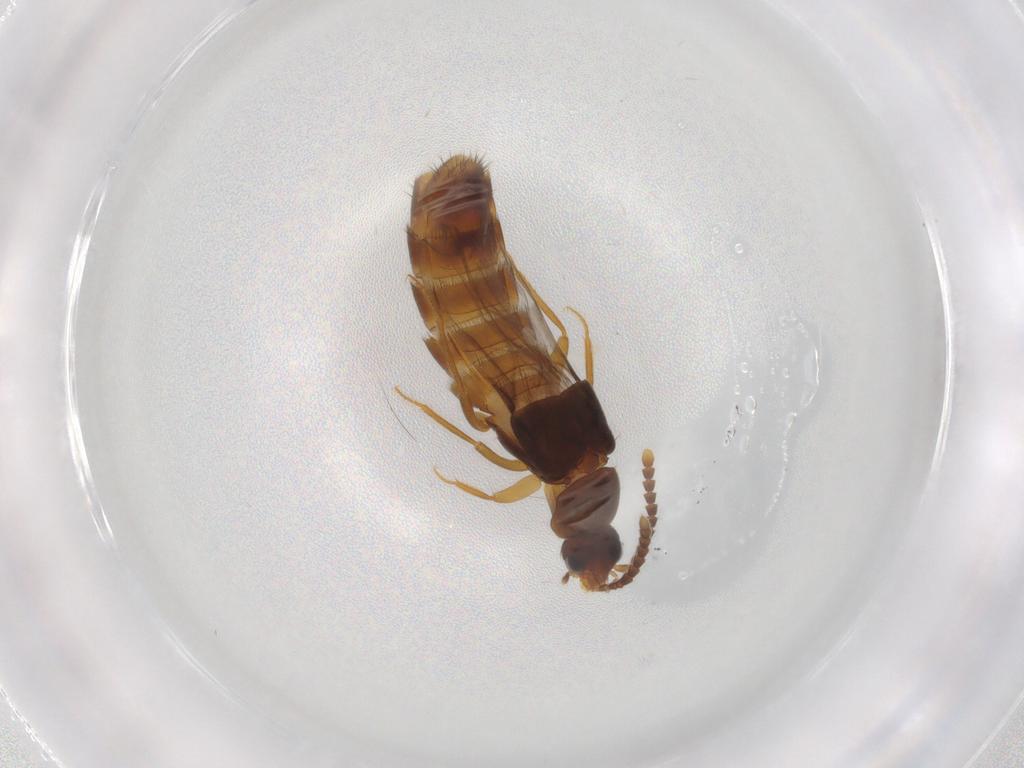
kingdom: Animalia
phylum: Arthropoda
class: Insecta
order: Coleoptera
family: Staphylinidae
